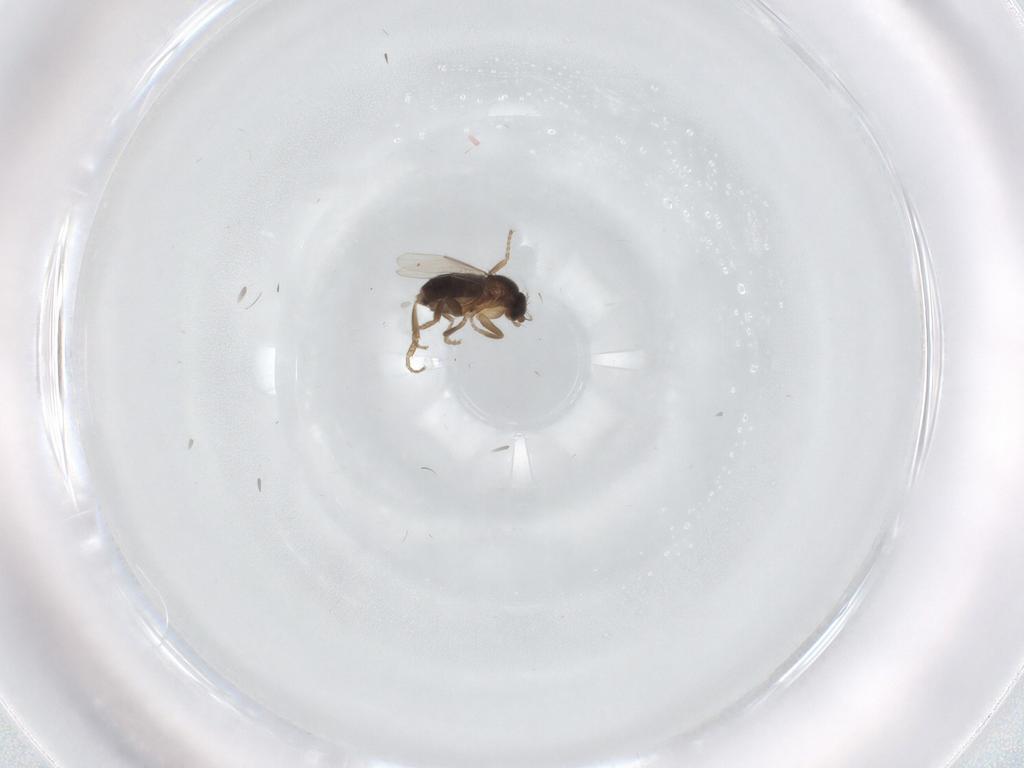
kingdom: Animalia
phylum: Arthropoda
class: Insecta
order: Diptera
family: Phoridae
